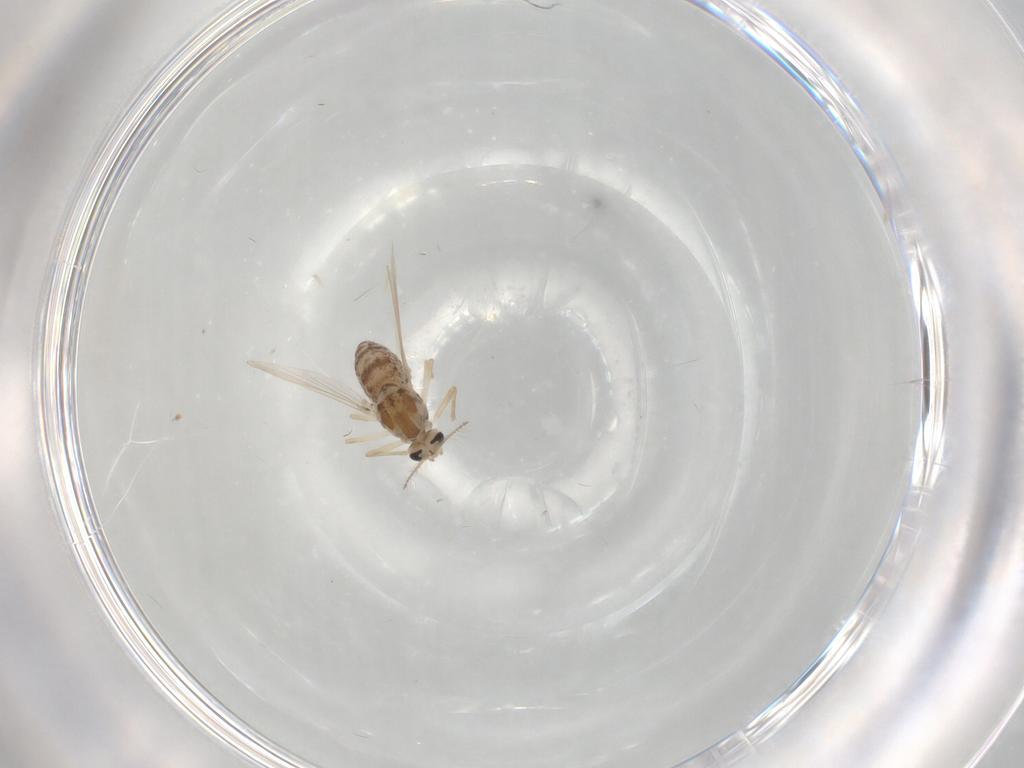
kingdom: Animalia
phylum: Arthropoda
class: Insecta
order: Diptera
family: Chironomidae
